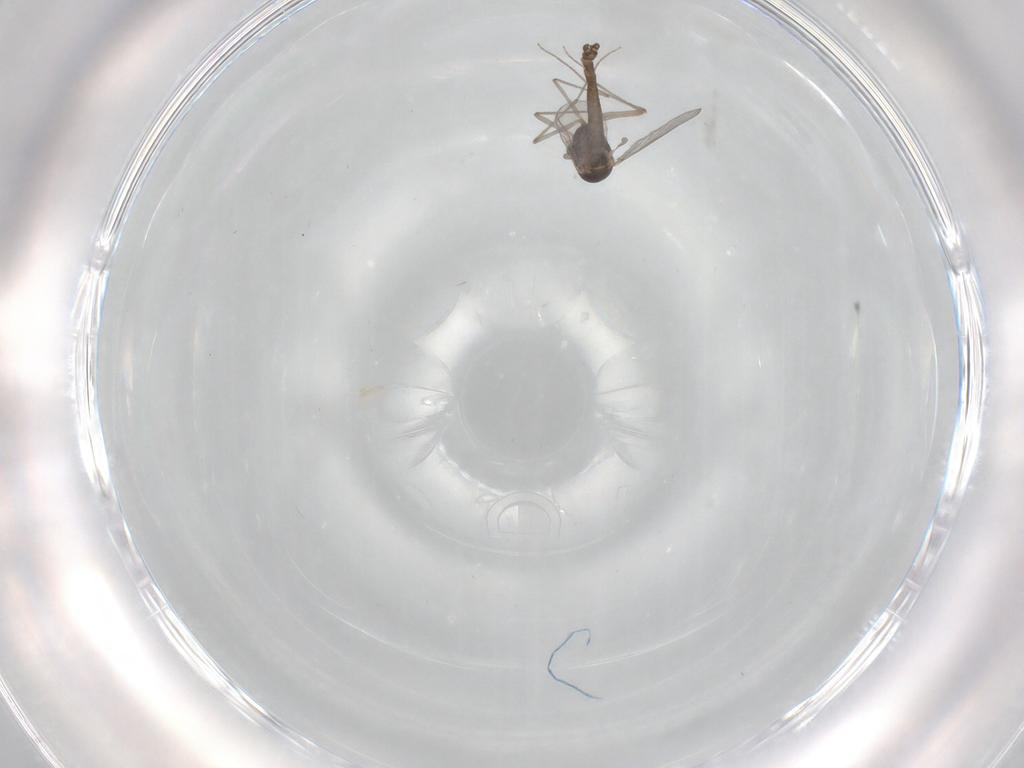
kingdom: Animalia
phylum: Arthropoda
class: Insecta
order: Diptera
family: Chironomidae
